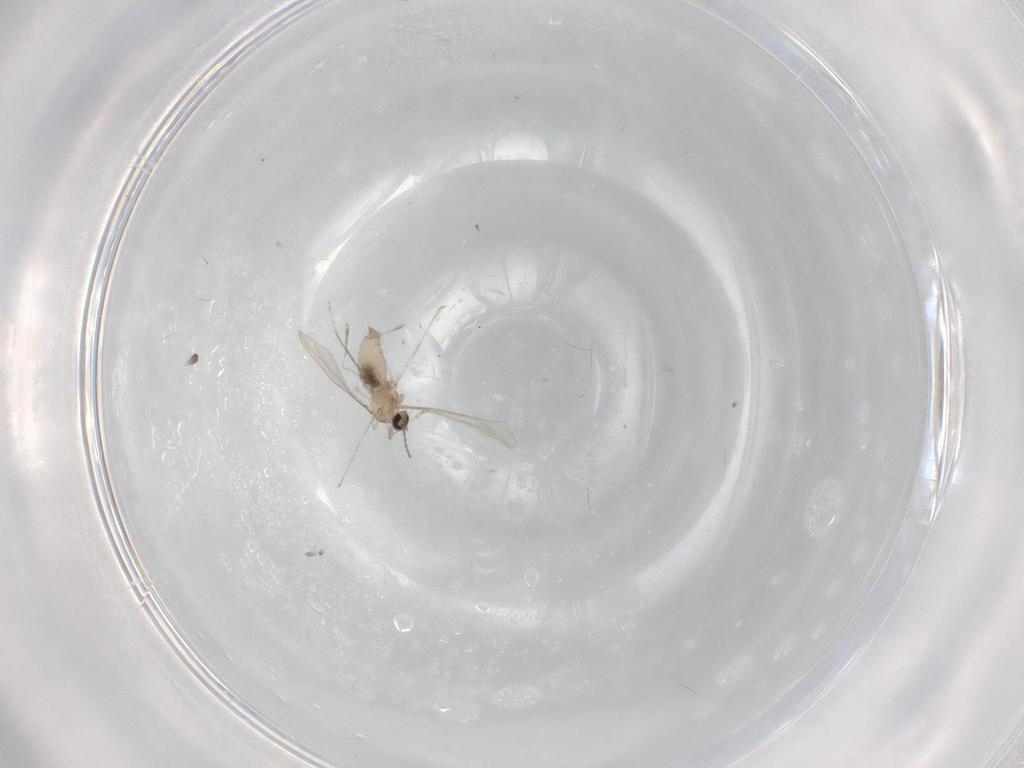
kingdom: Animalia
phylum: Arthropoda
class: Insecta
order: Diptera
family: Cecidomyiidae
